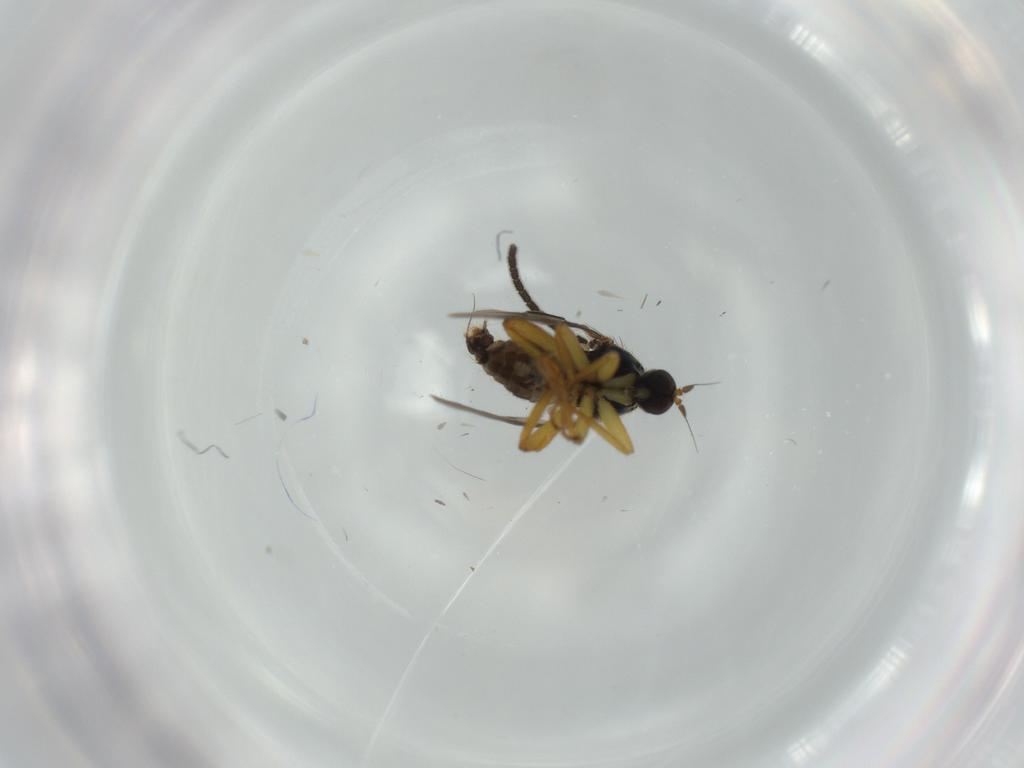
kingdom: Animalia
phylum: Arthropoda
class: Insecta
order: Diptera
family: Hybotidae
